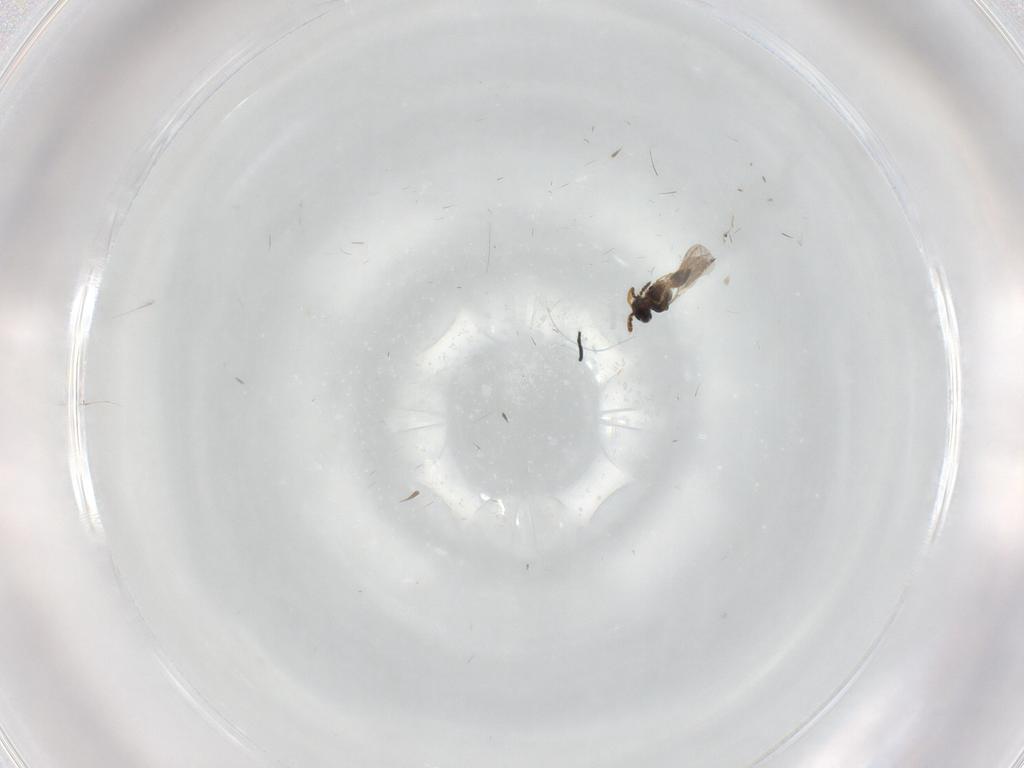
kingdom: Animalia
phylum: Arthropoda
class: Insecta
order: Hymenoptera
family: Platygastridae
